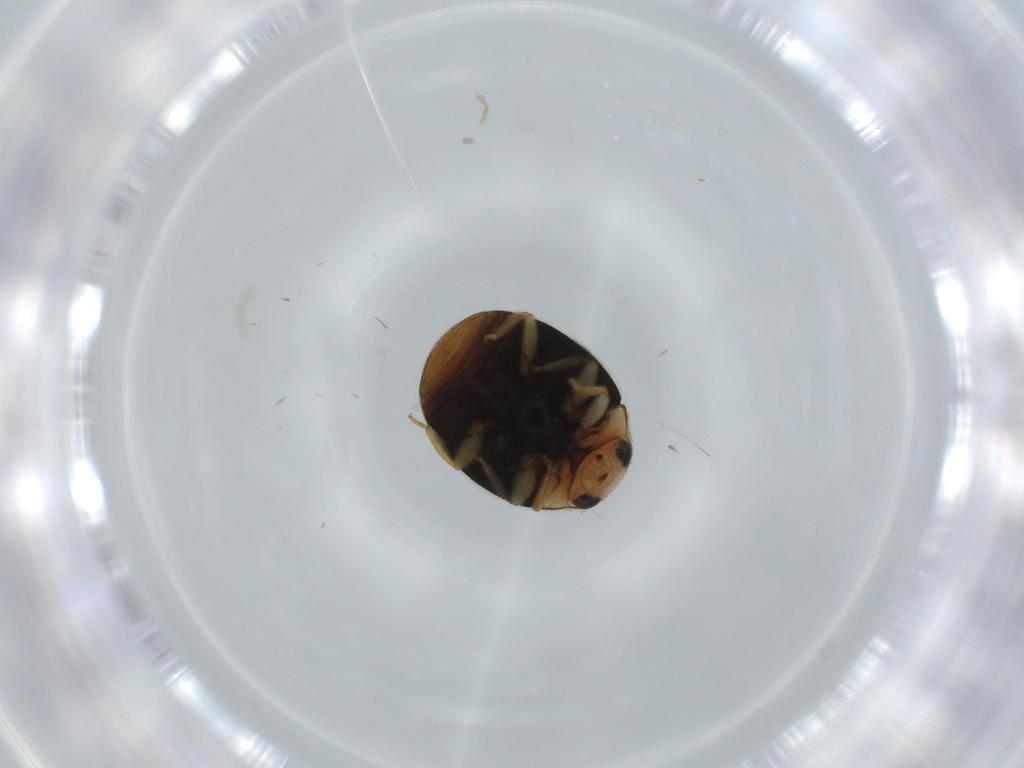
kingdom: Animalia
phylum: Arthropoda
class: Insecta
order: Coleoptera
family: Coccinellidae
